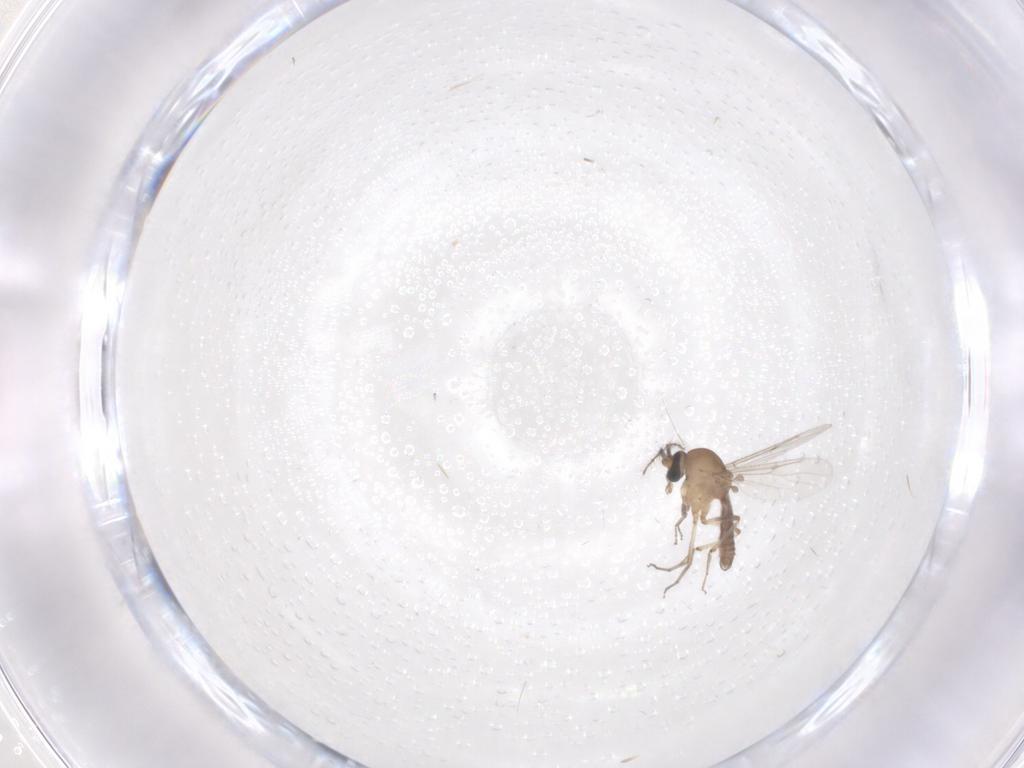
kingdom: Animalia
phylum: Arthropoda
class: Insecta
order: Diptera
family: Ceratopogonidae
